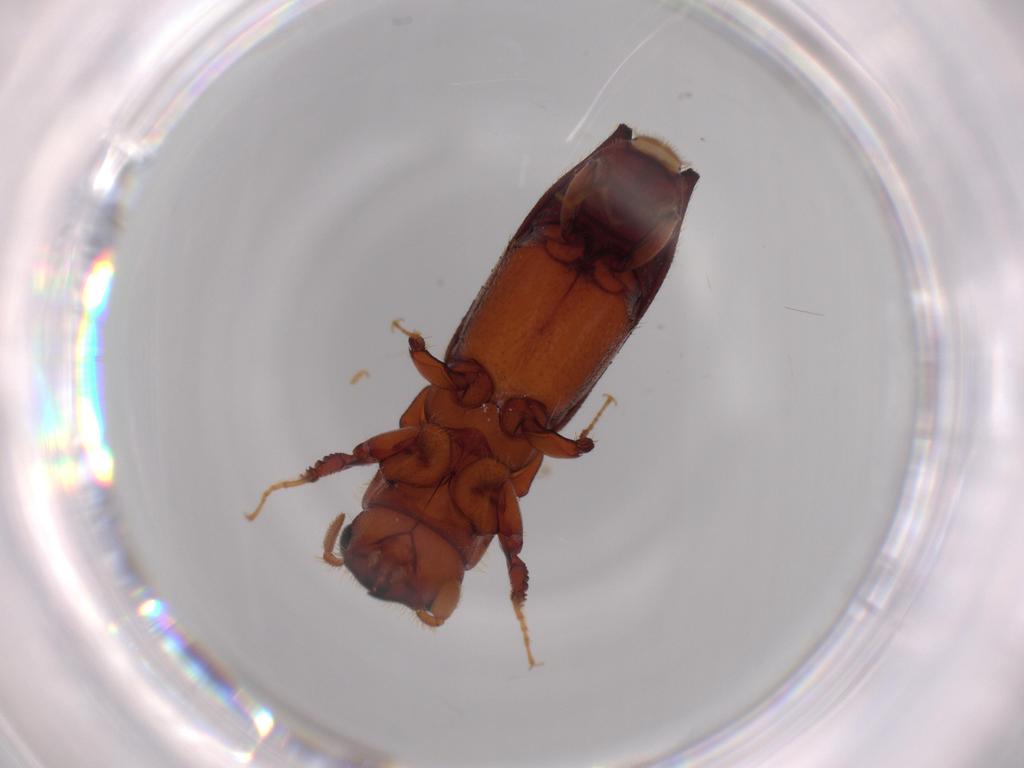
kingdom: Animalia
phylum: Arthropoda
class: Insecta
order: Coleoptera
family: Curculionidae
